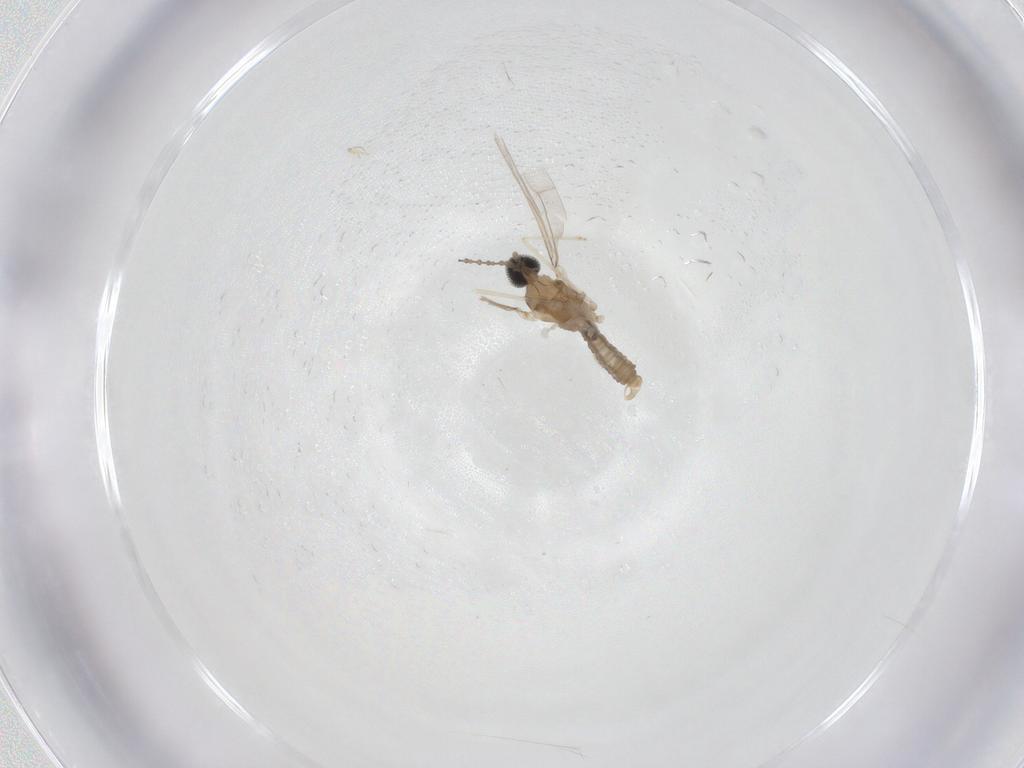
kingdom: Animalia
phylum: Arthropoda
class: Insecta
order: Diptera
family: Cecidomyiidae
